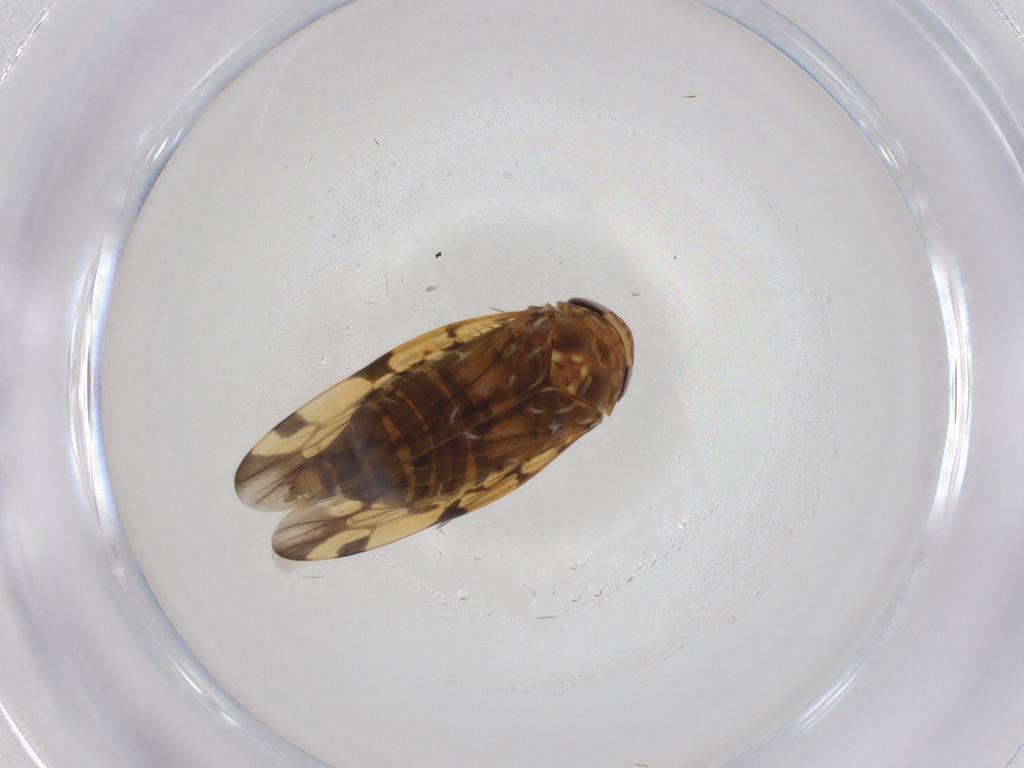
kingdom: Animalia
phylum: Arthropoda
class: Insecta
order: Hemiptera
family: Cicadellidae
